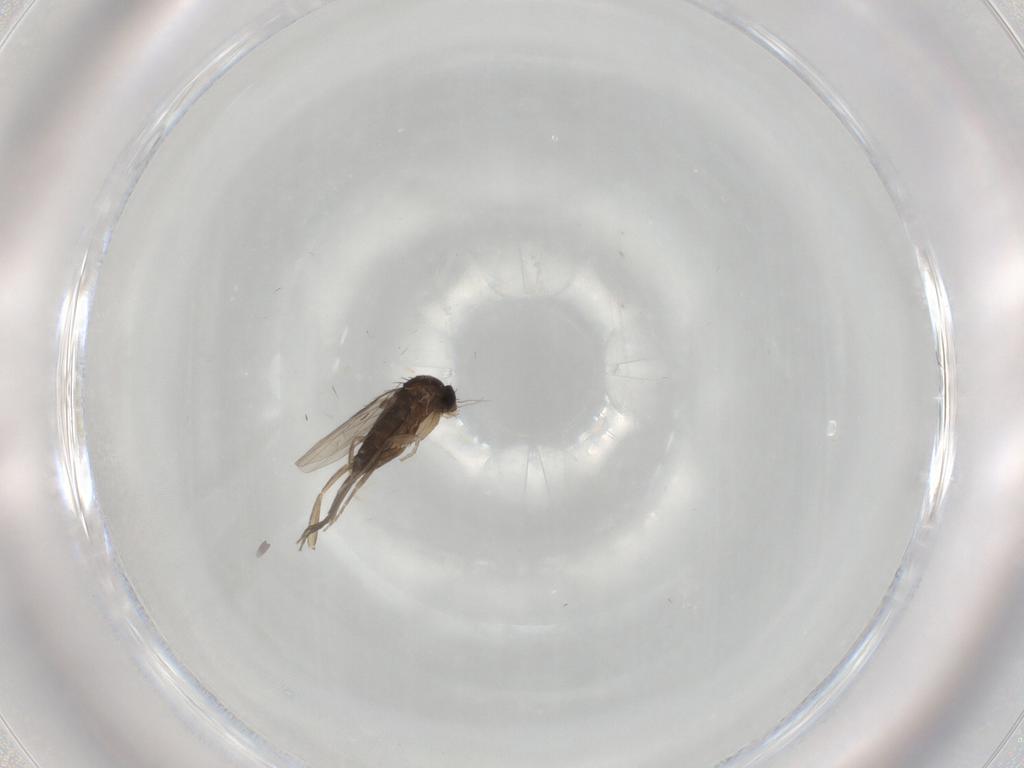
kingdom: Animalia
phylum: Arthropoda
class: Insecta
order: Diptera
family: Phoridae
